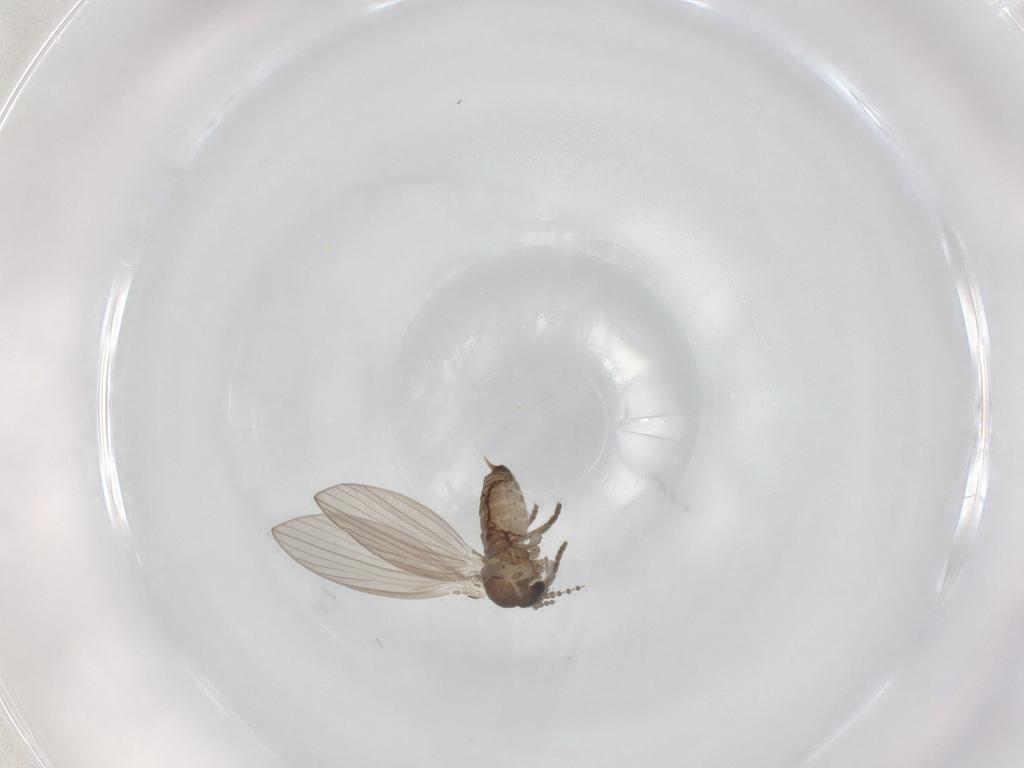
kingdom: Animalia
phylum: Arthropoda
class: Insecta
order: Diptera
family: Psychodidae
